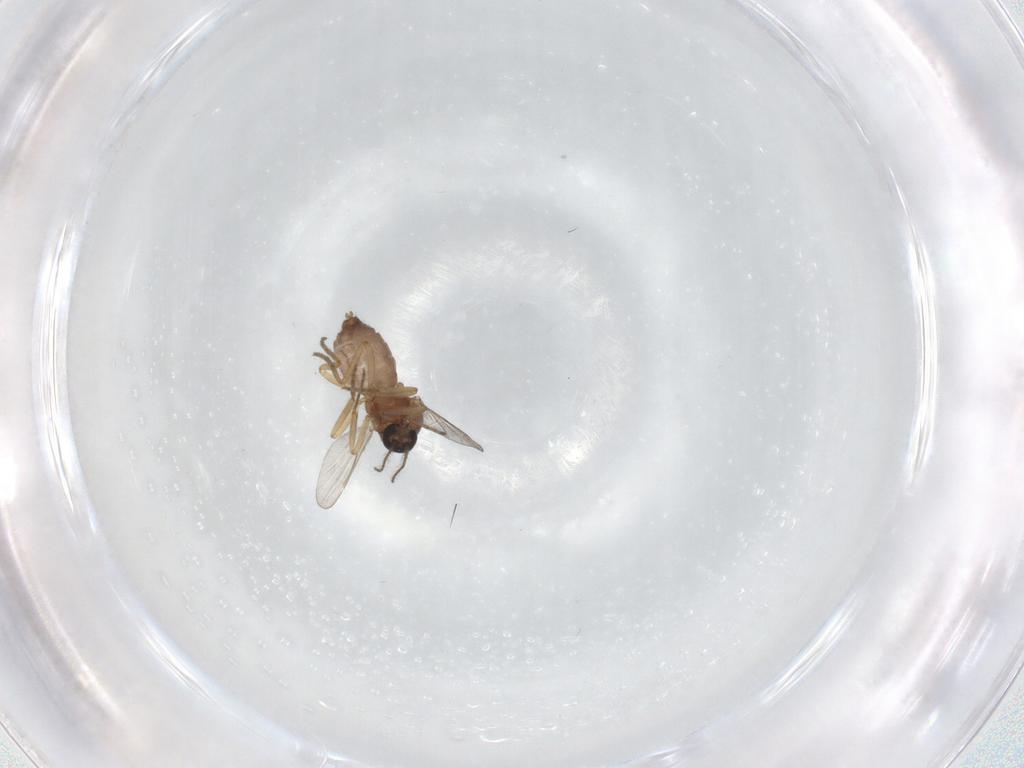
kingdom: Animalia
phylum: Arthropoda
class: Insecta
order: Diptera
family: Ceratopogonidae
